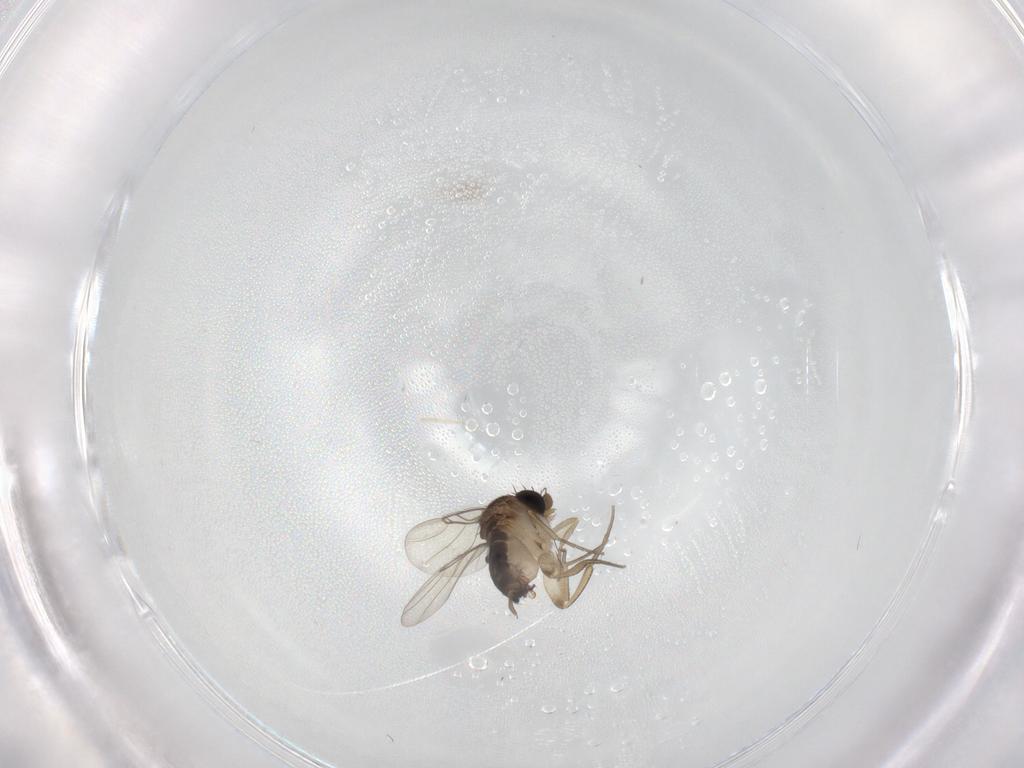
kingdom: Animalia
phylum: Arthropoda
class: Insecta
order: Diptera
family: Phoridae
